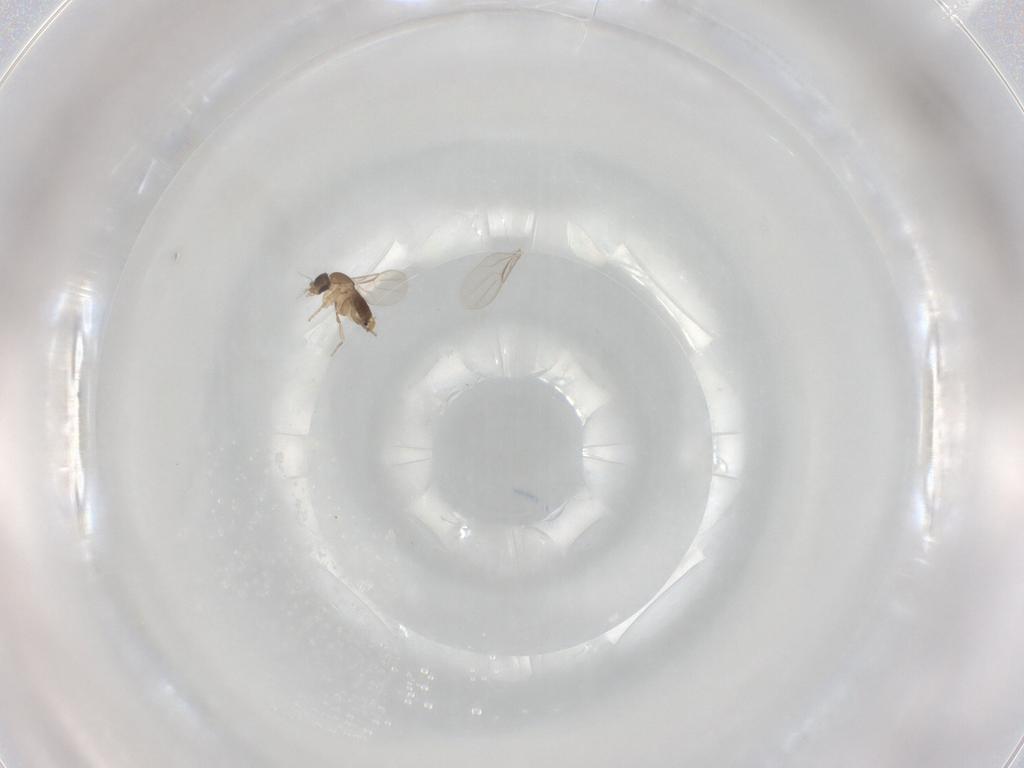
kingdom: Animalia
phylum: Arthropoda
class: Insecta
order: Diptera
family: Phoridae
